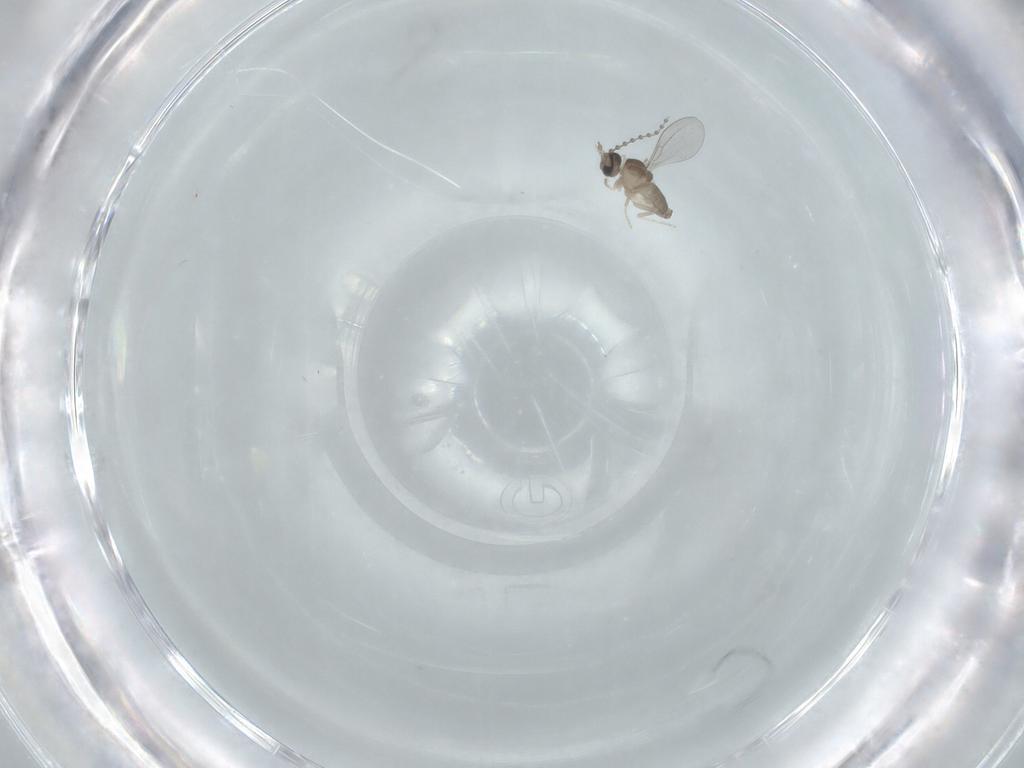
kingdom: Animalia
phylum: Arthropoda
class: Insecta
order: Diptera
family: Cecidomyiidae
